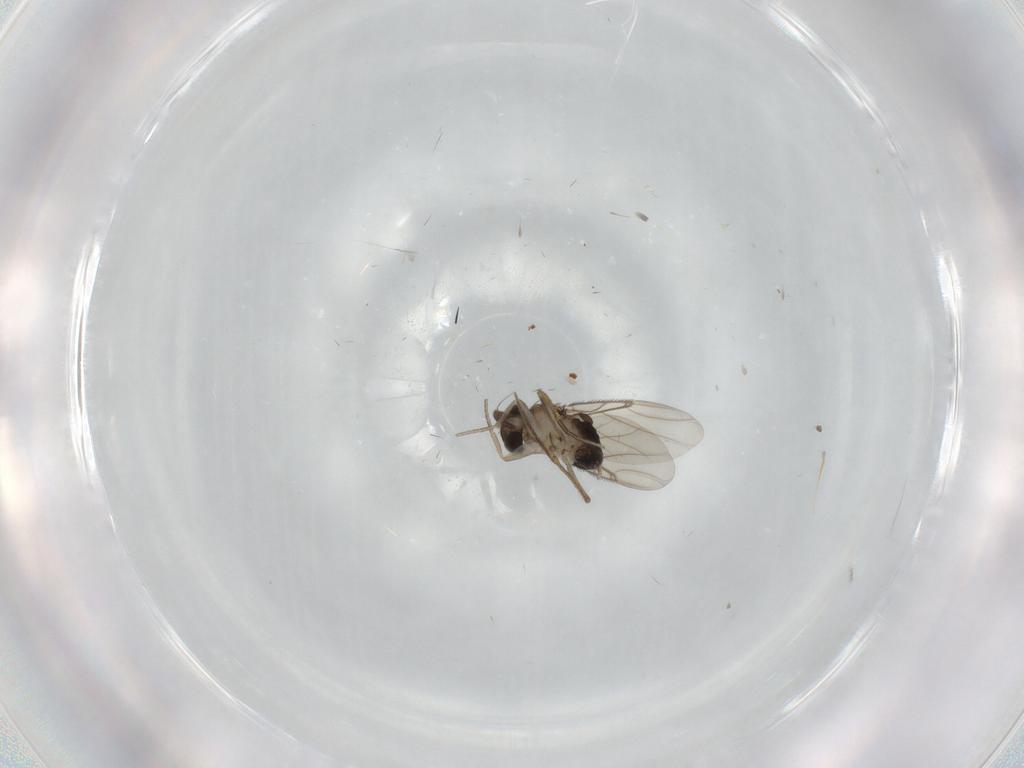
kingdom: Animalia
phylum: Arthropoda
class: Insecta
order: Diptera
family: Phoridae
